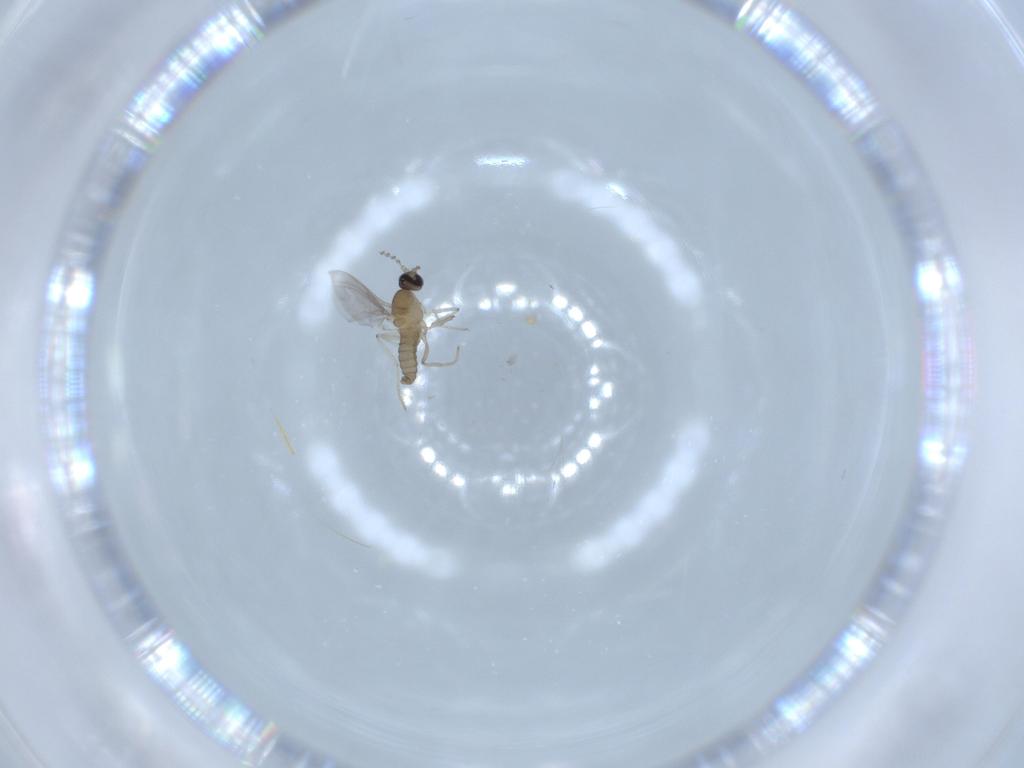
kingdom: Animalia
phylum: Arthropoda
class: Insecta
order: Diptera
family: Cecidomyiidae
